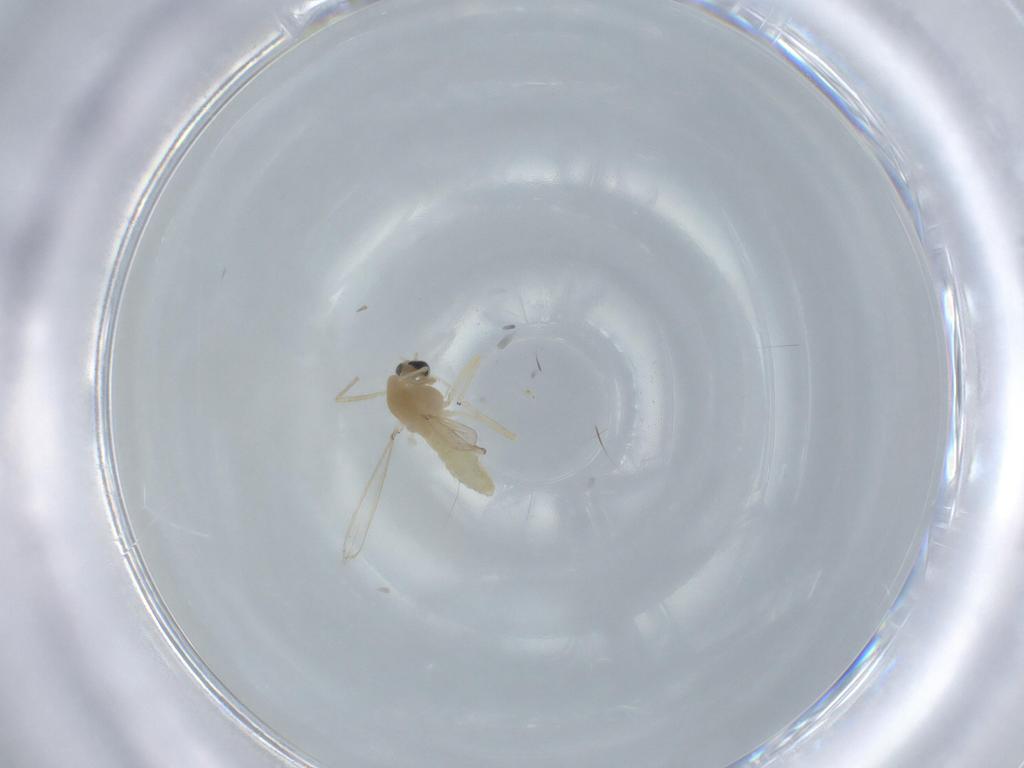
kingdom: Animalia
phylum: Arthropoda
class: Insecta
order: Diptera
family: Chironomidae
